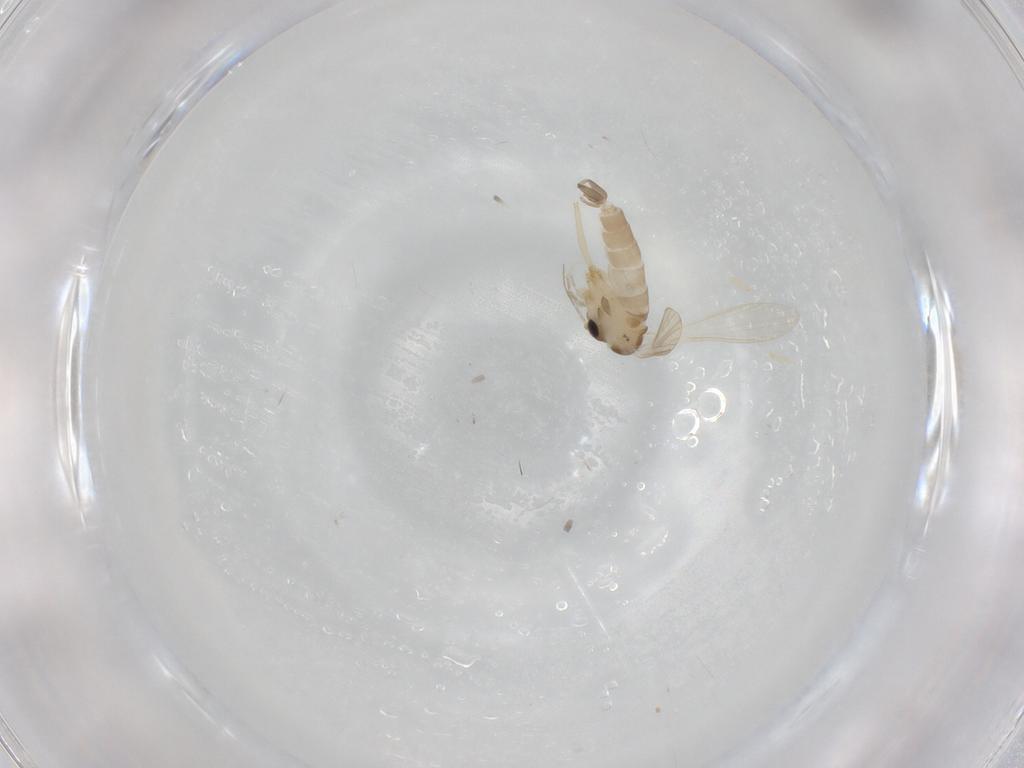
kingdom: Animalia
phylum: Arthropoda
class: Insecta
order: Diptera
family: Psychodidae
